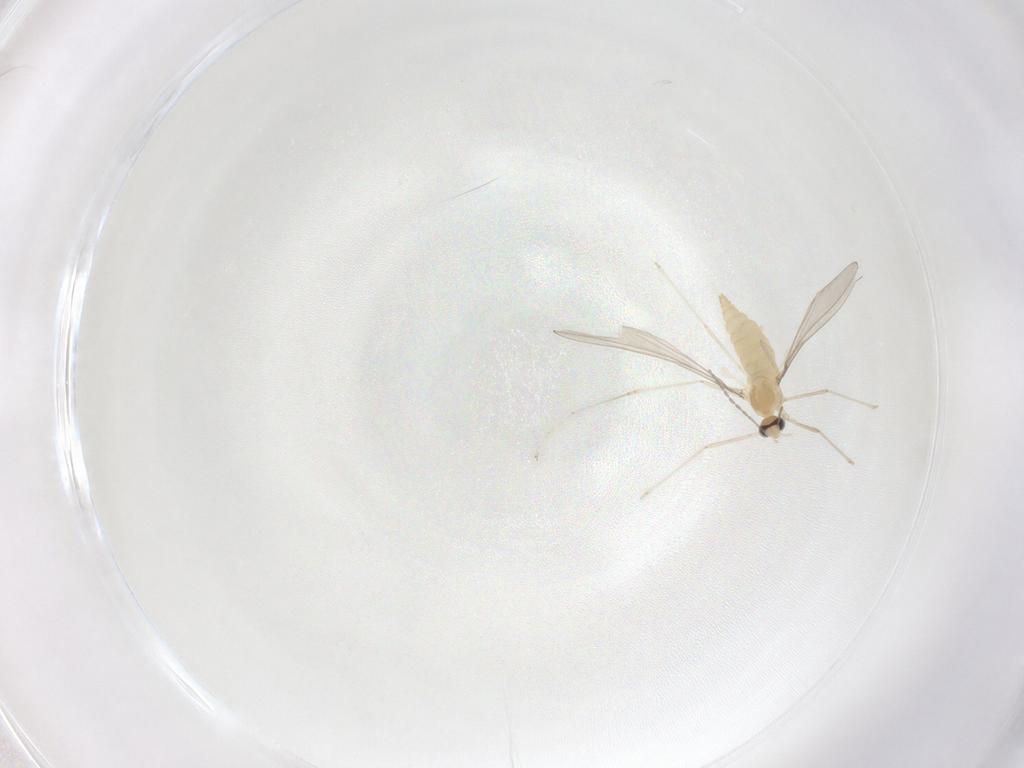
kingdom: Animalia
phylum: Arthropoda
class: Insecta
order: Diptera
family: Cecidomyiidae
